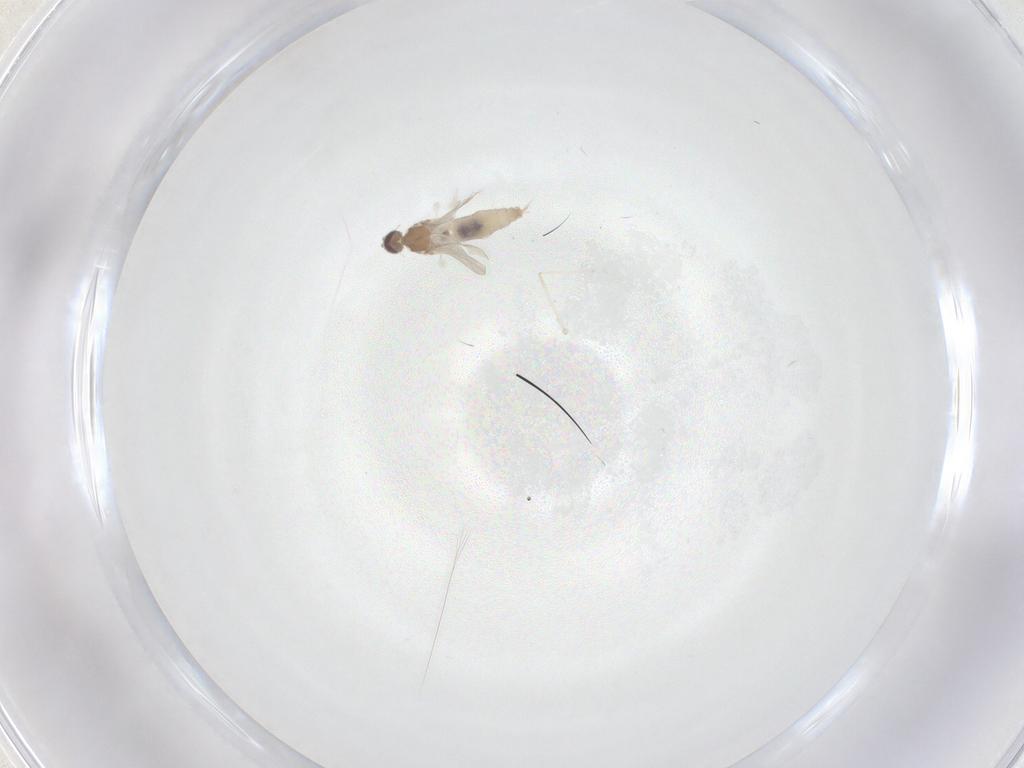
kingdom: Animalia
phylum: Arthropoda
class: Insecta
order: Diptera
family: Cecidomyiidae
